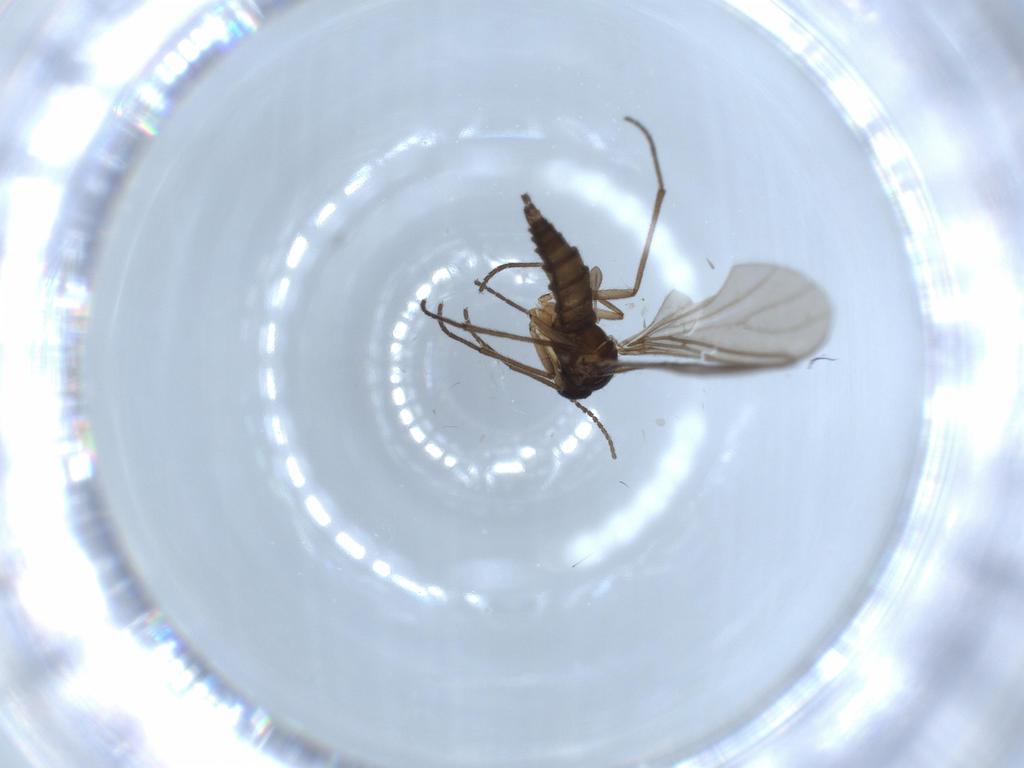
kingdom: Animalia
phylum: Arthropoda
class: Insecta
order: Diptera
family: Sciaridae
